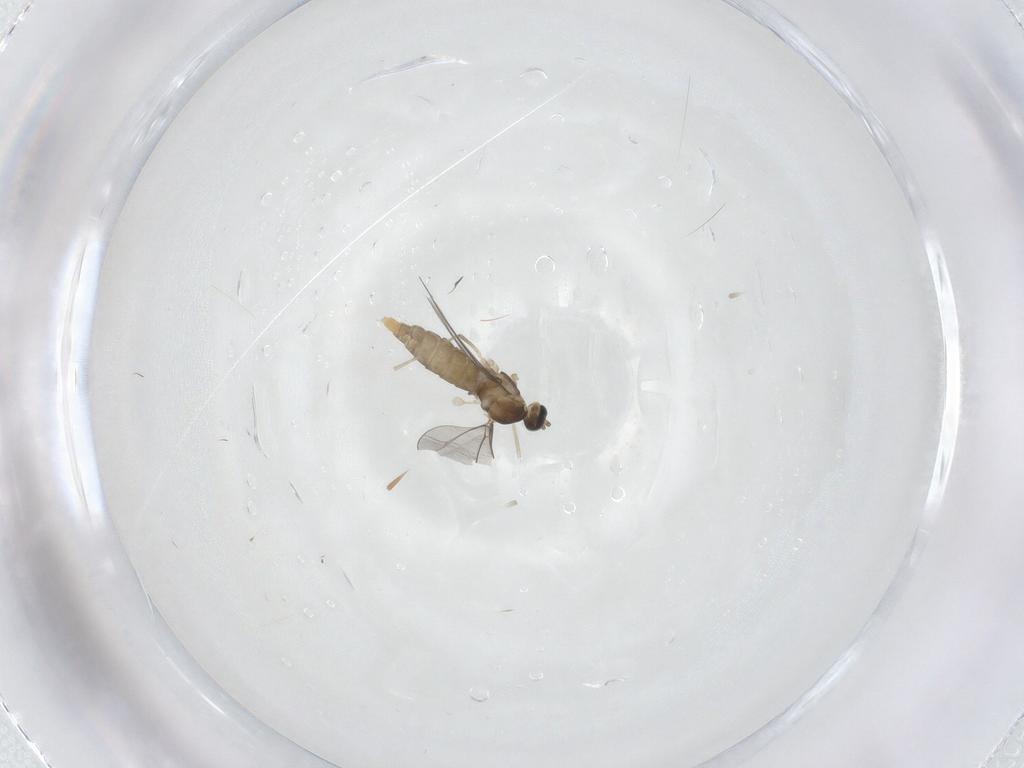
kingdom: Animalia
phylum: Arthropoda
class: Insecta
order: Diptera
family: Cecidomyiidae
